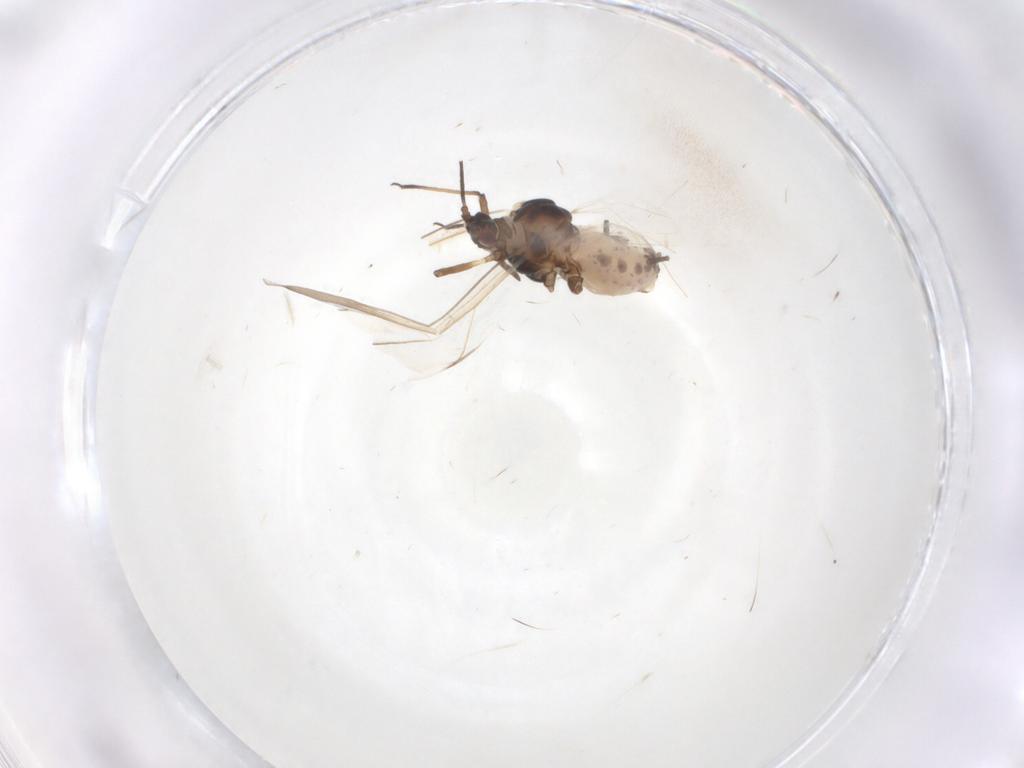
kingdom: Animalia
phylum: Arthropoda
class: Insecta
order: Hemiptera
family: Aphididae
